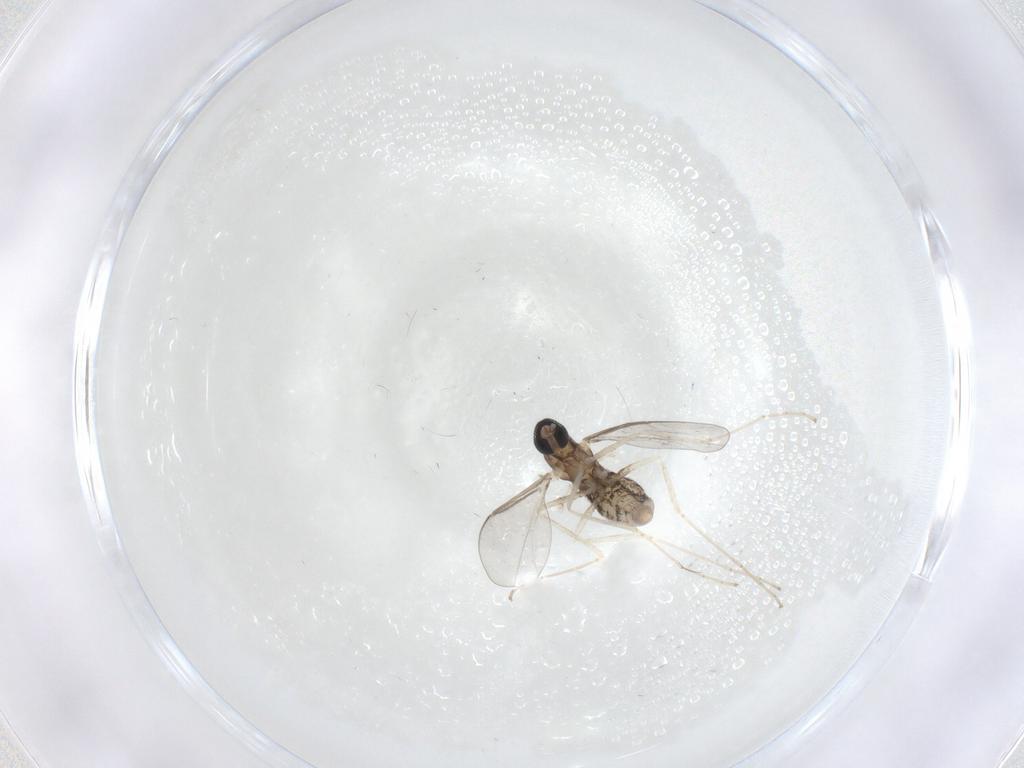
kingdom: Animalia
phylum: Arthropoda
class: Insecta
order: Diptera
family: Cecidomyiidae
